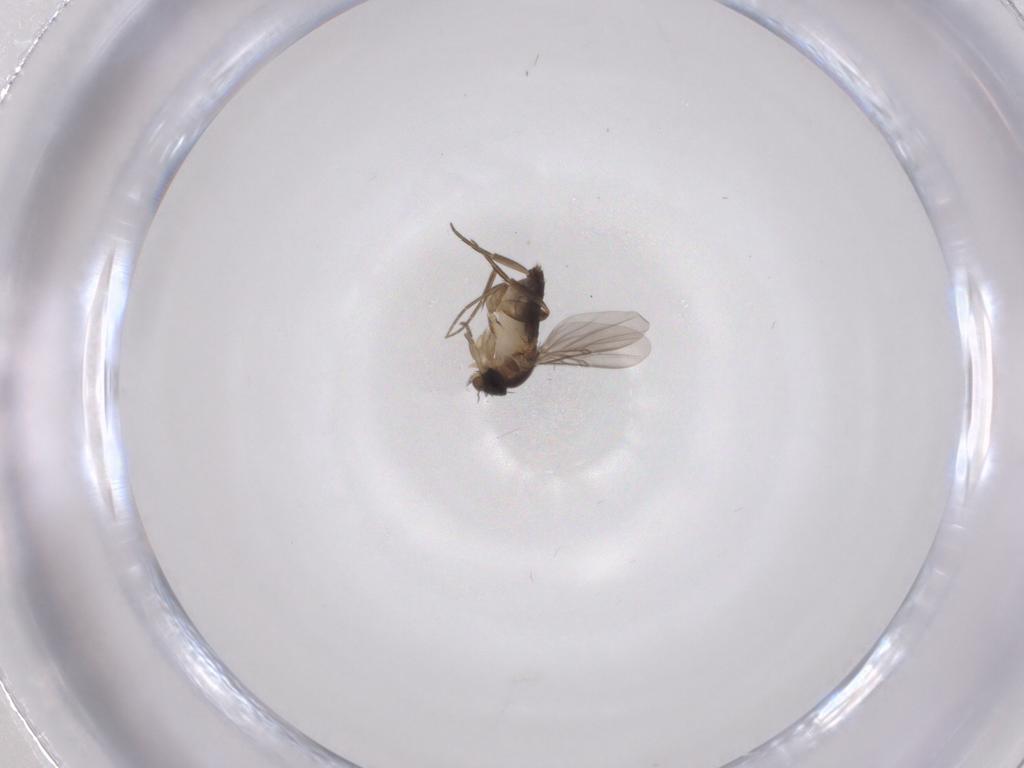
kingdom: Animalia
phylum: Arthropoda
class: Insecta
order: Diptera
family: Phoridae
